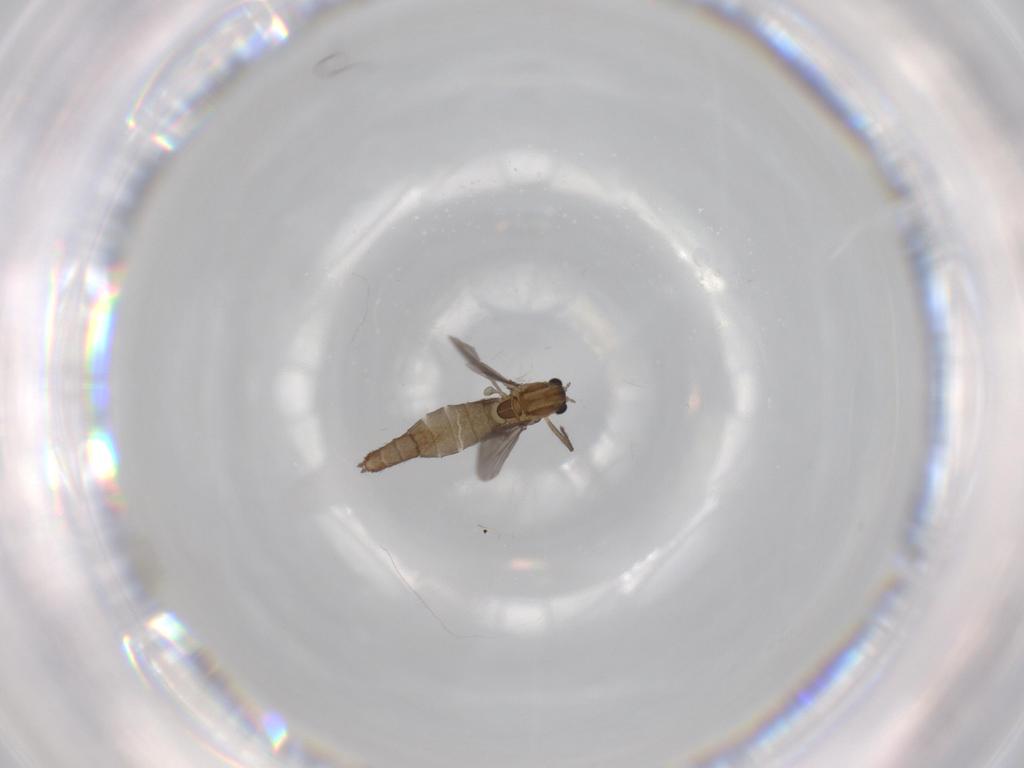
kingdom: Animalia
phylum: Arthropoda
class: Insecta
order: Diptera
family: Chironomidae
